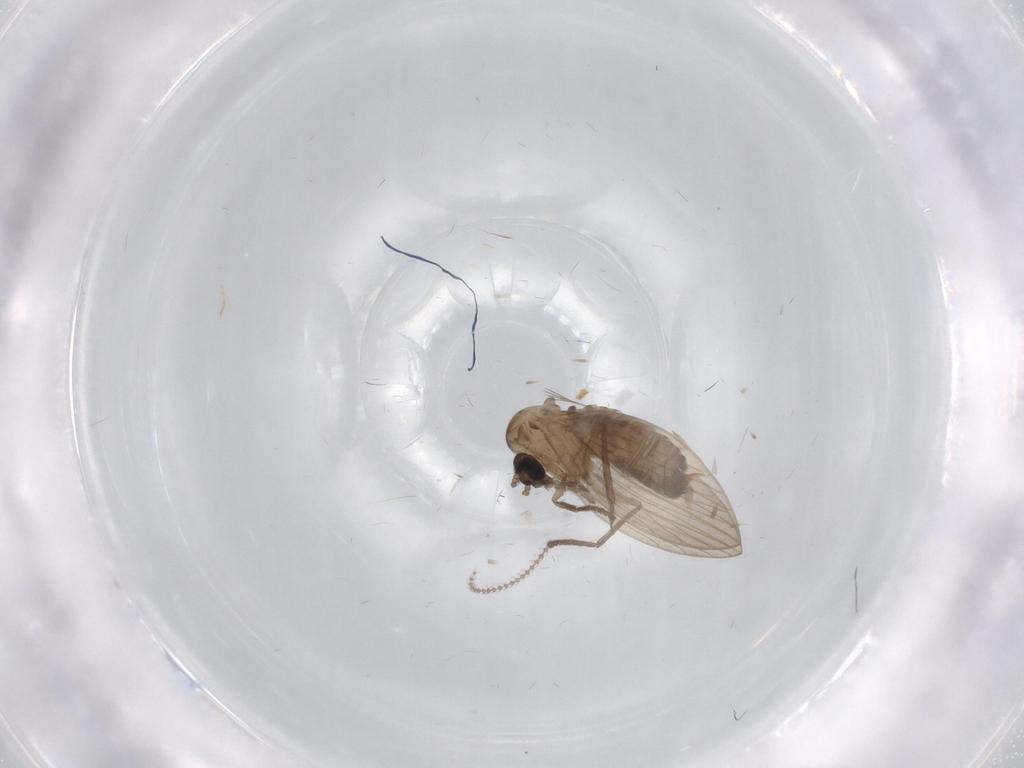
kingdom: Animalia
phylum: Arthropoda
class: Insecta
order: Diptera
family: Psychodidae
